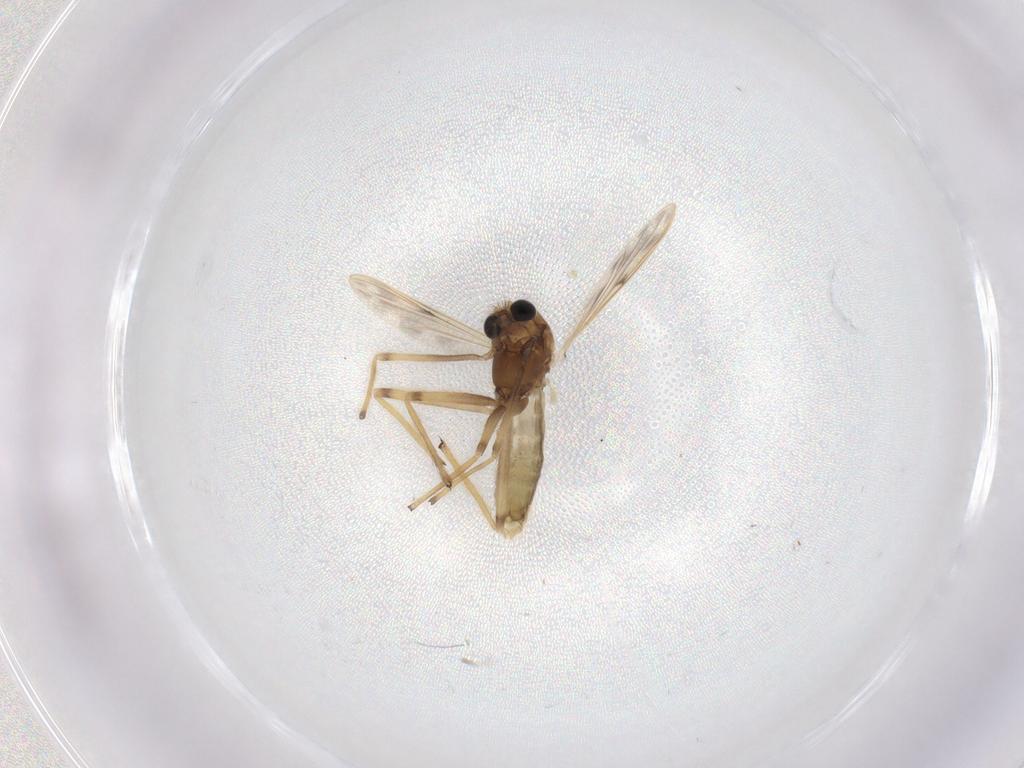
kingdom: Animalia
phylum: Arthropoda
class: Insecta
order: Diptera
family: Chironomidae
